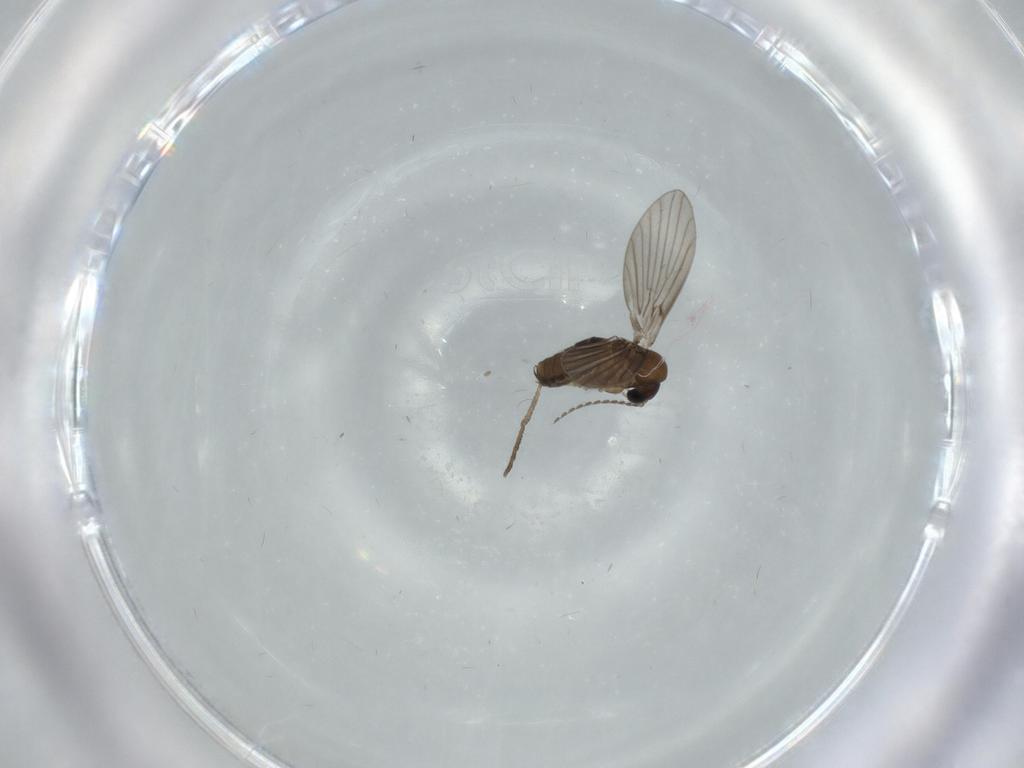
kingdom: Animalia
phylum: Arthropoda
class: Insecta
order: Diptera
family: Psychodidae
